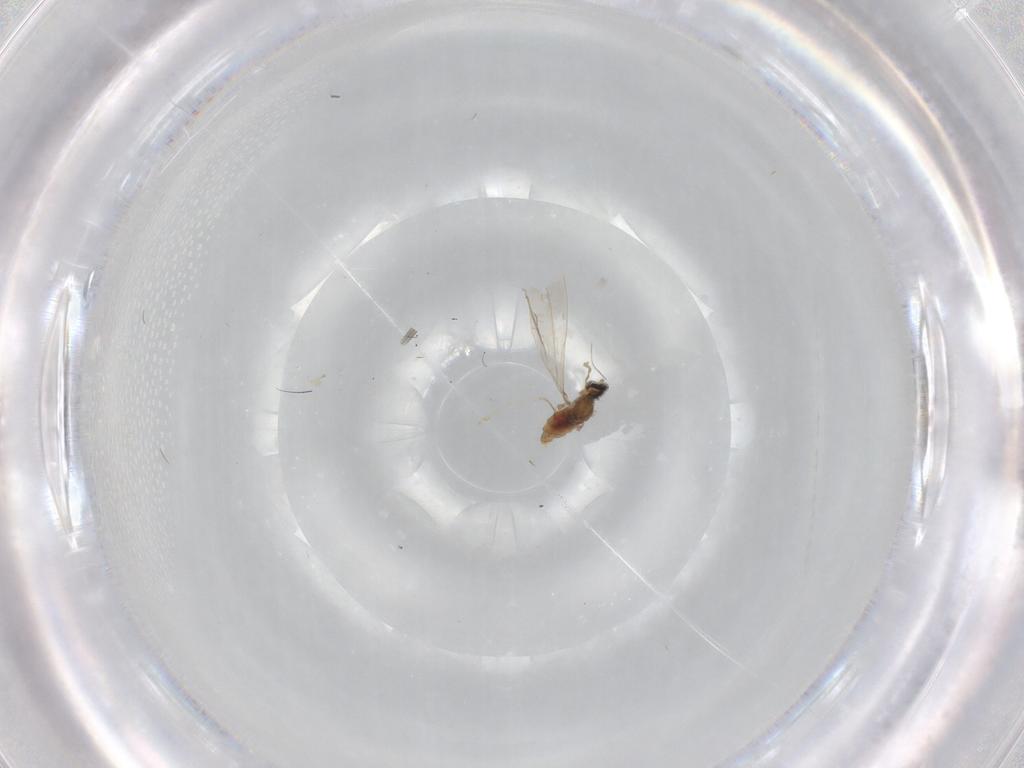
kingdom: Animalia
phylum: Arthropoda
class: Insecta
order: Diptera
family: Cecidomyiidae
